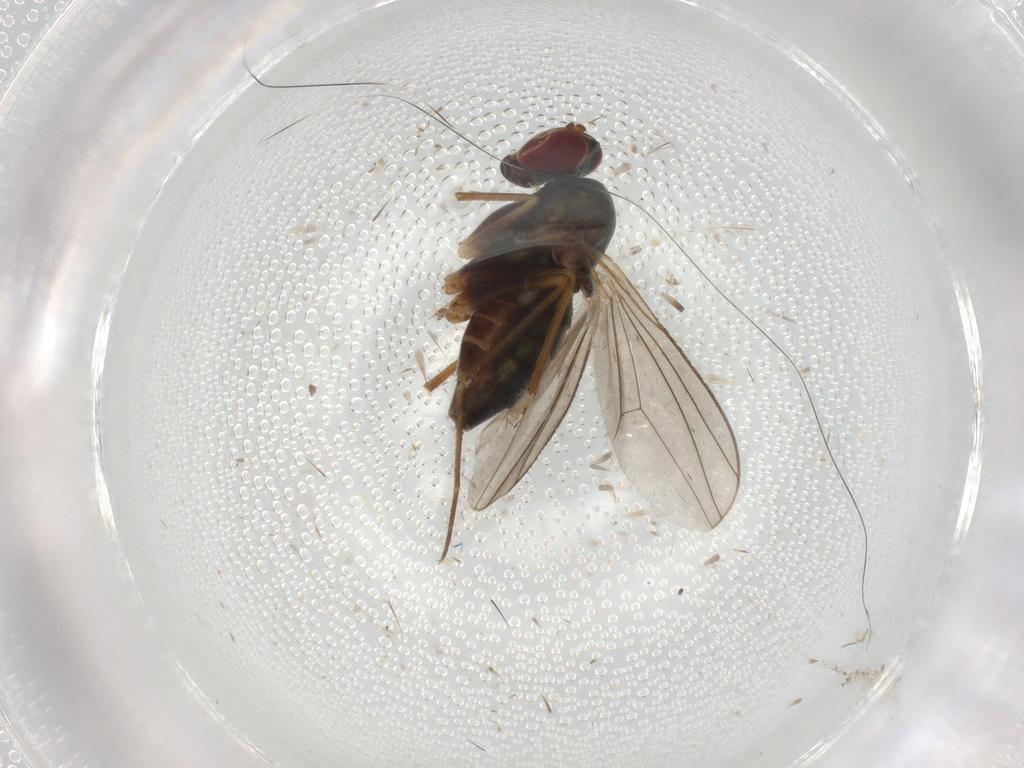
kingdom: Animalia
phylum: Arthropoda
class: Insecta
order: Diptera
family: Dolichopodidae
